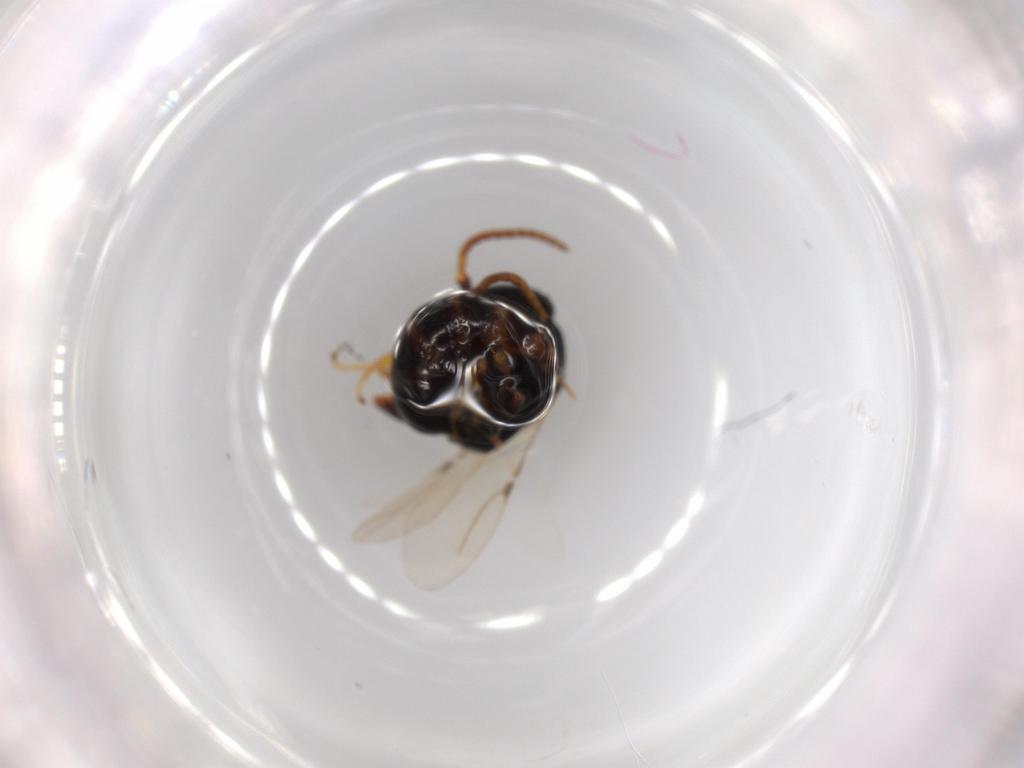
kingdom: Animalia
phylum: Arthropoda
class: Insecta
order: Hymenoptera
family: Bethylidae
